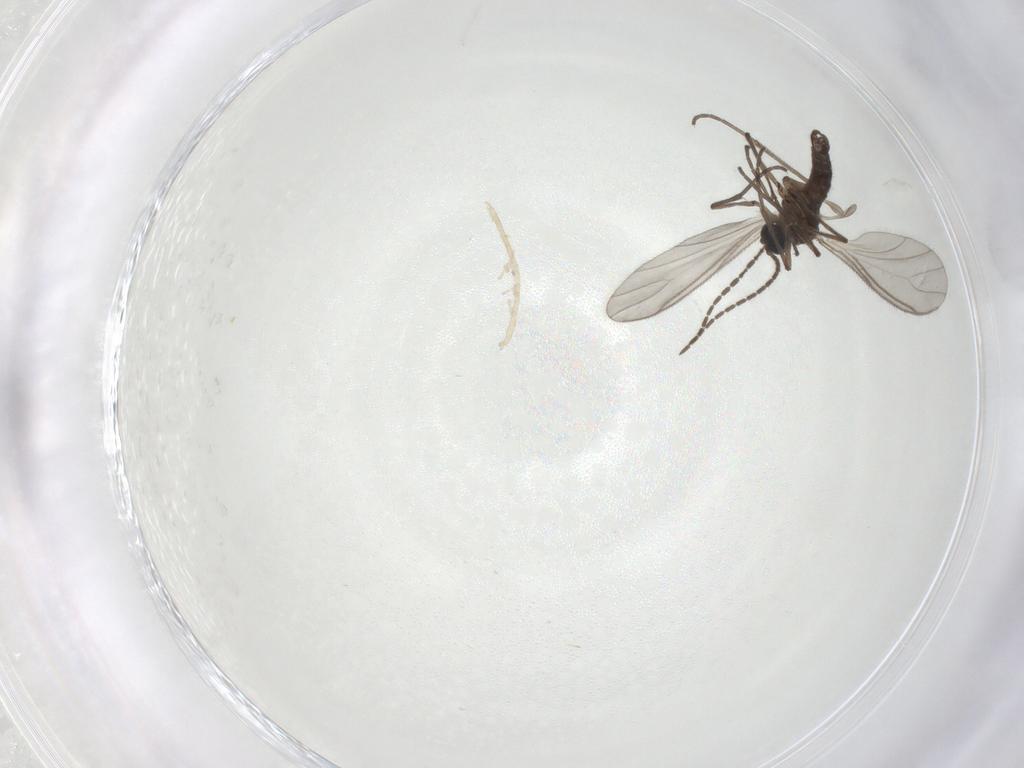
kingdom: Animalia
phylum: Arthropoda
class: Insecta
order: Diptera
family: Sciaridae
